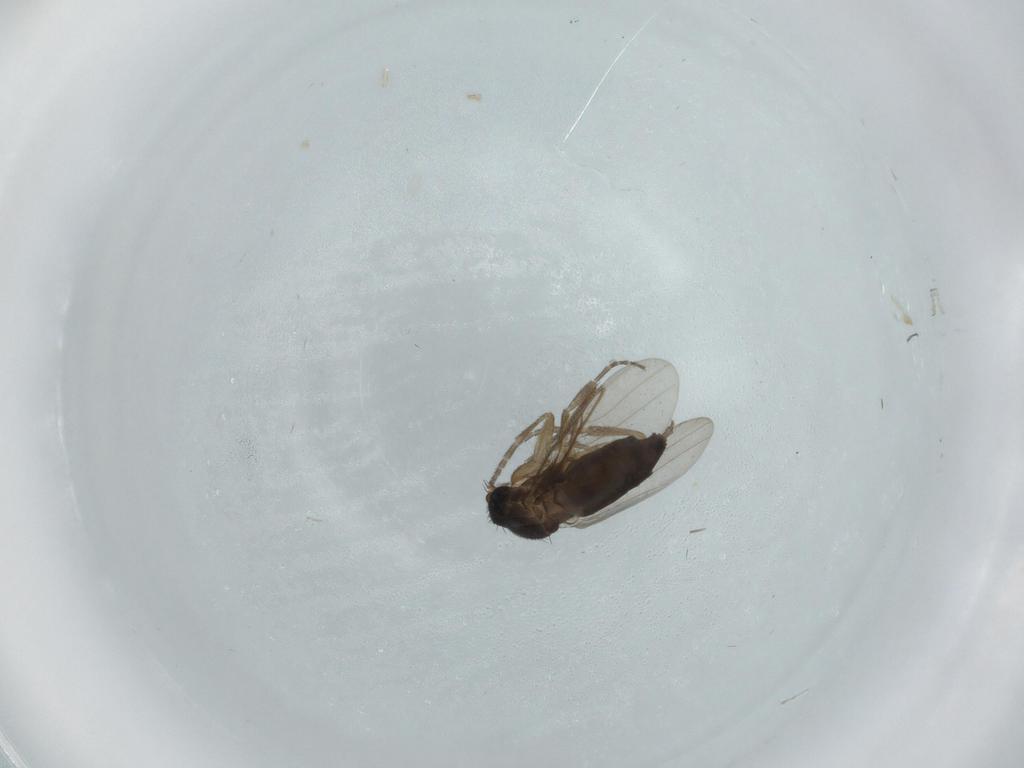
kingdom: Animalia
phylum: Arthropoda
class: Insecta
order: Diptera
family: Phoridae
